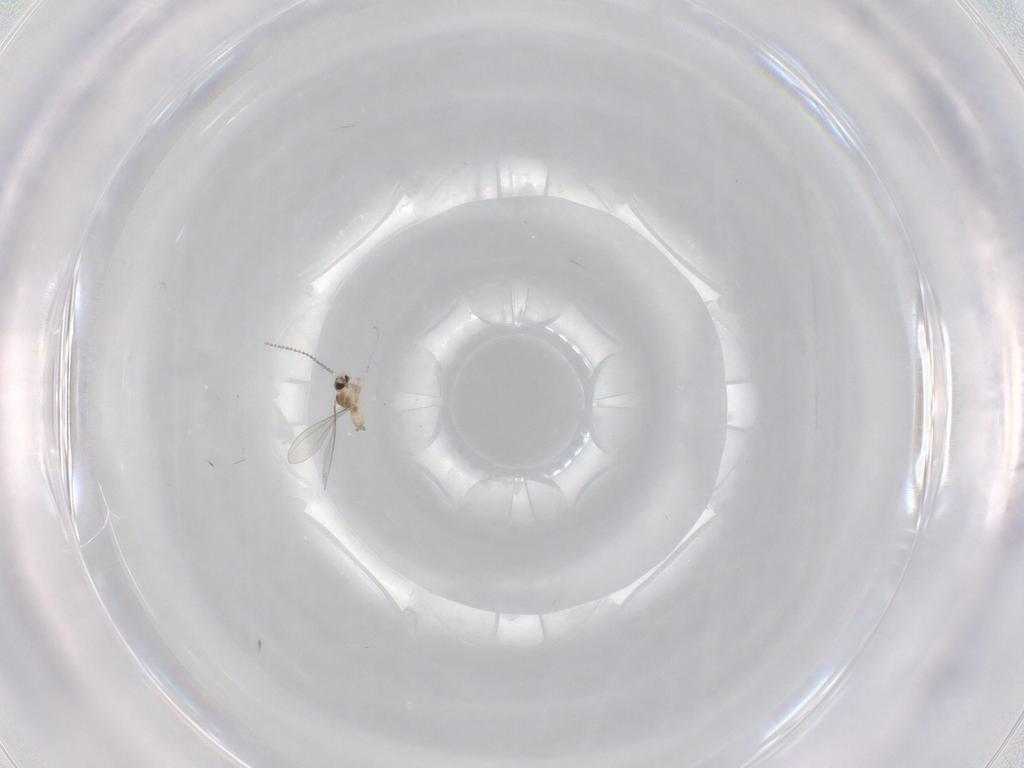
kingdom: Animalia
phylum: Arthropoda
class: Insecta
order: Diptera
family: Cecidomyiidae
